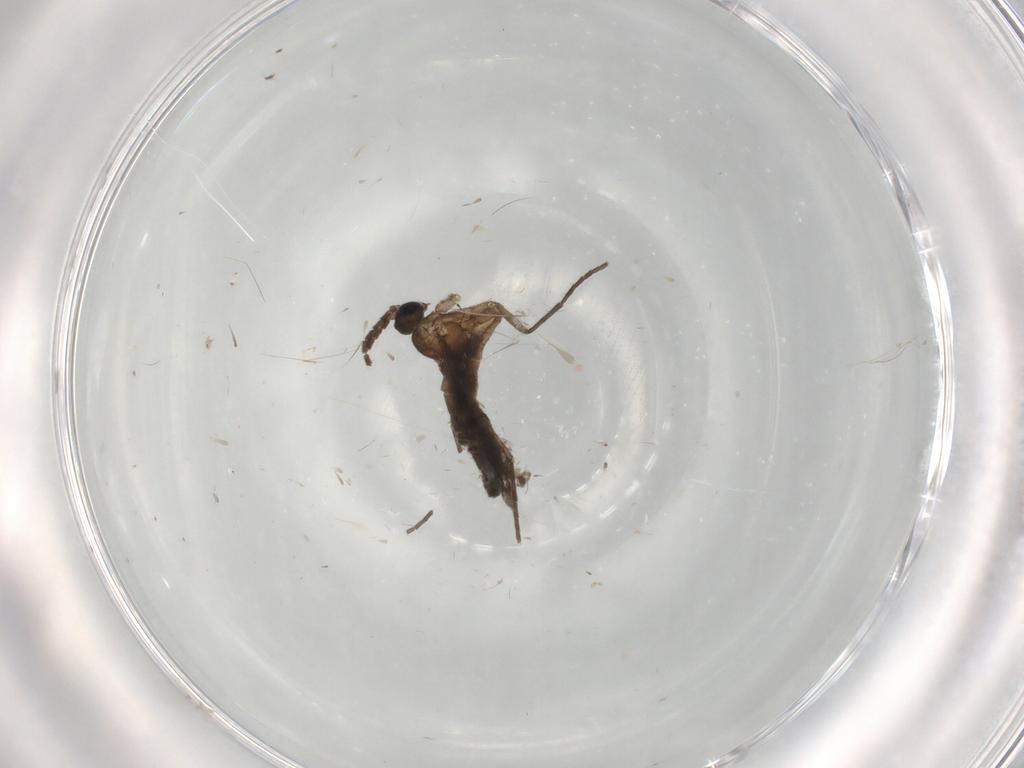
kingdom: Animalia
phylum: Arthropoda
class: Insecta
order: Diptera
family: Sciaridae
